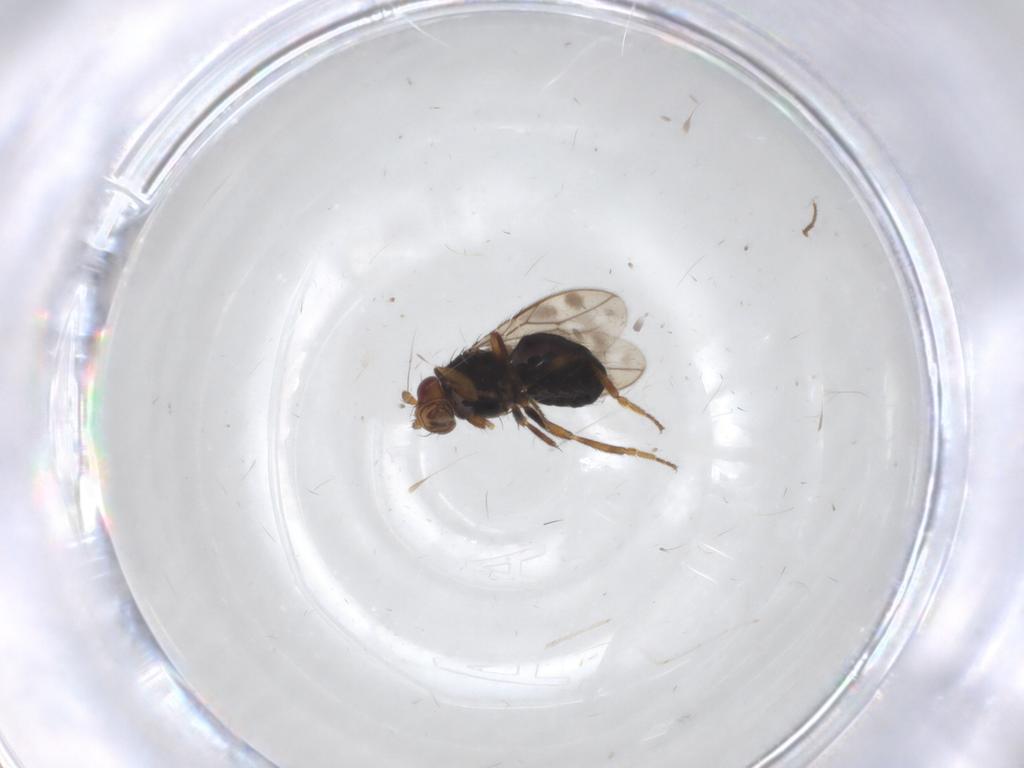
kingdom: Animalia
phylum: Arthropoda
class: Insecta
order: Diptera
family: Sphaeroceridae
